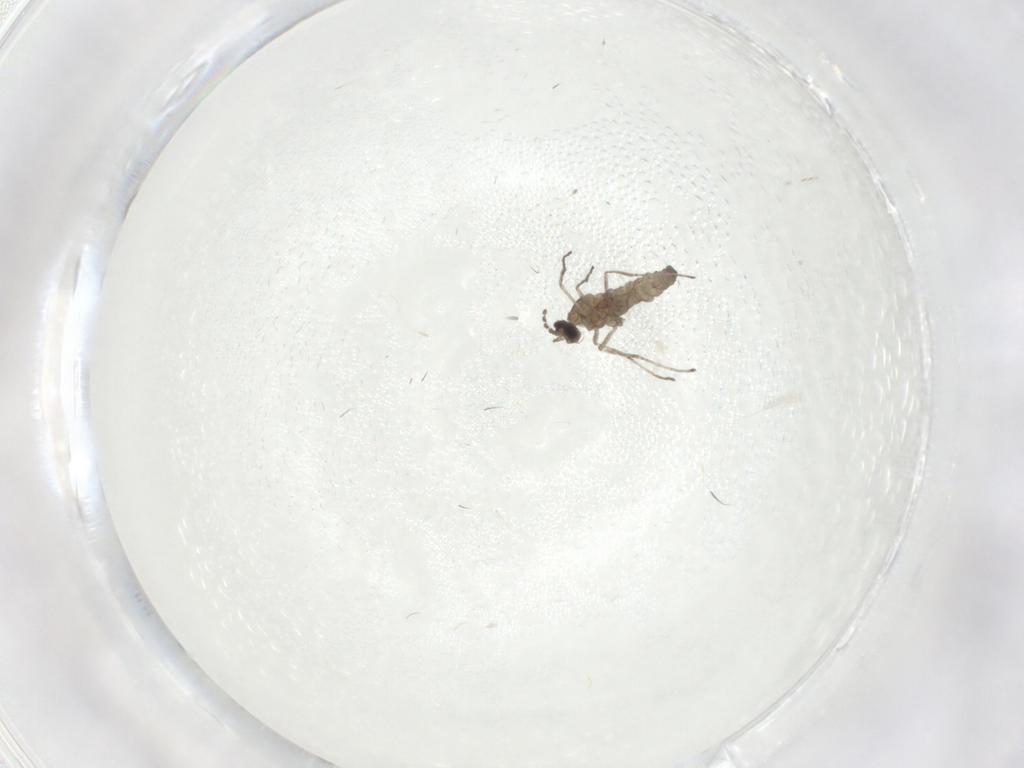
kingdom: Animalia
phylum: Arthropoda
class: Insecta
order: Diptera
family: Cecidomyiidae
